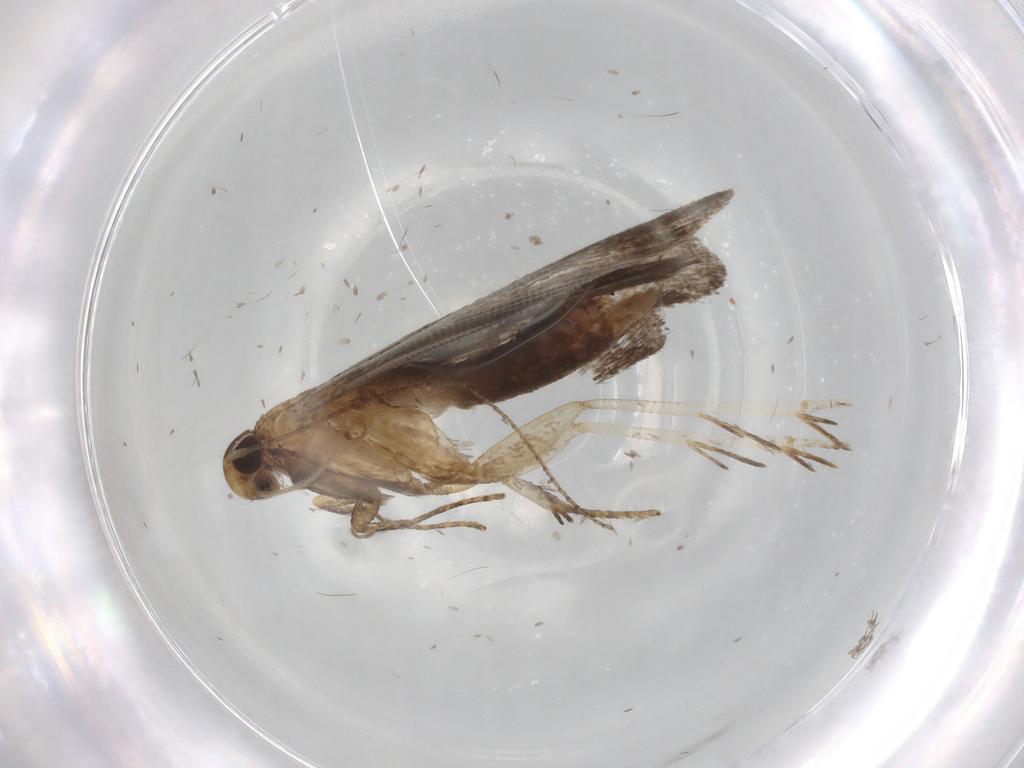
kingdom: Animalia
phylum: Arthropoda
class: Insecta
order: Lepidoptera
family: Gelechiidae
